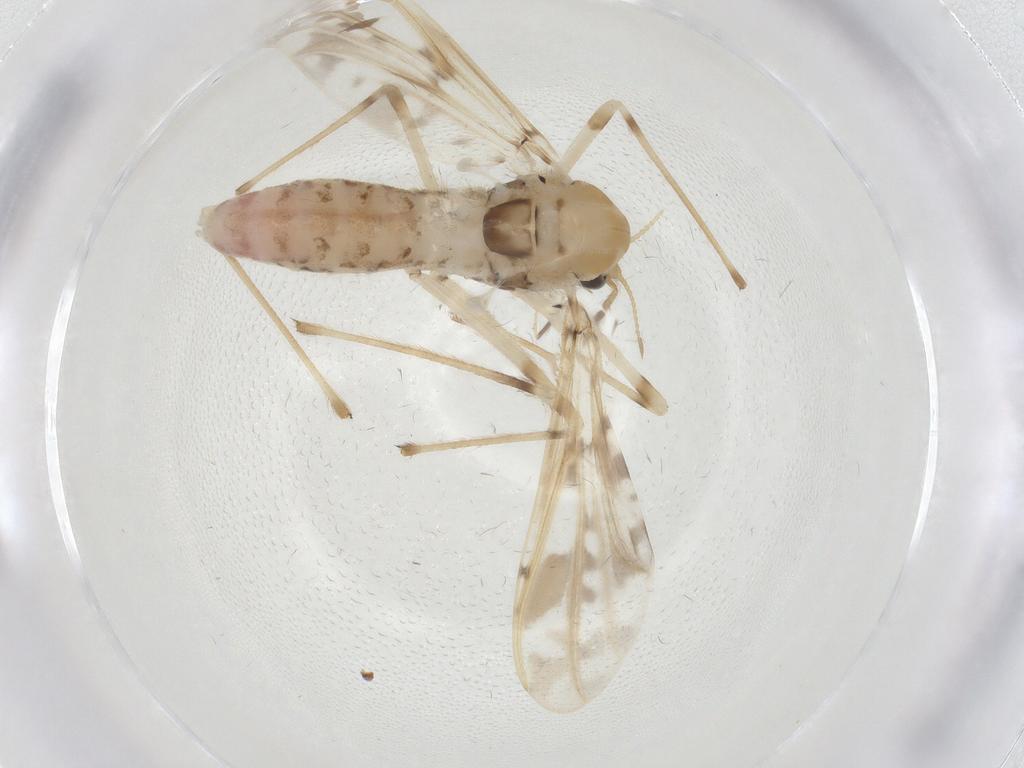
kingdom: Animalia
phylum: Arthropoda
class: Insecta
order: Diptera
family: Chironomidae
